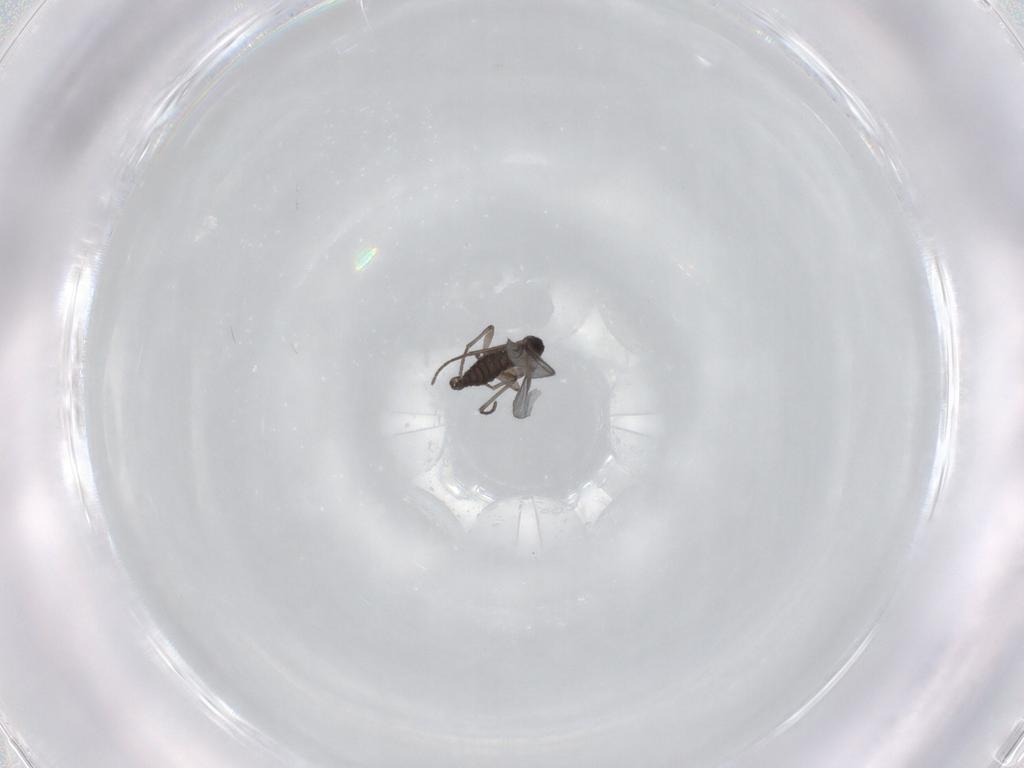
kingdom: Animalia
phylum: Arthropoda
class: Insecta
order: Diptera
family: Sciaridae
